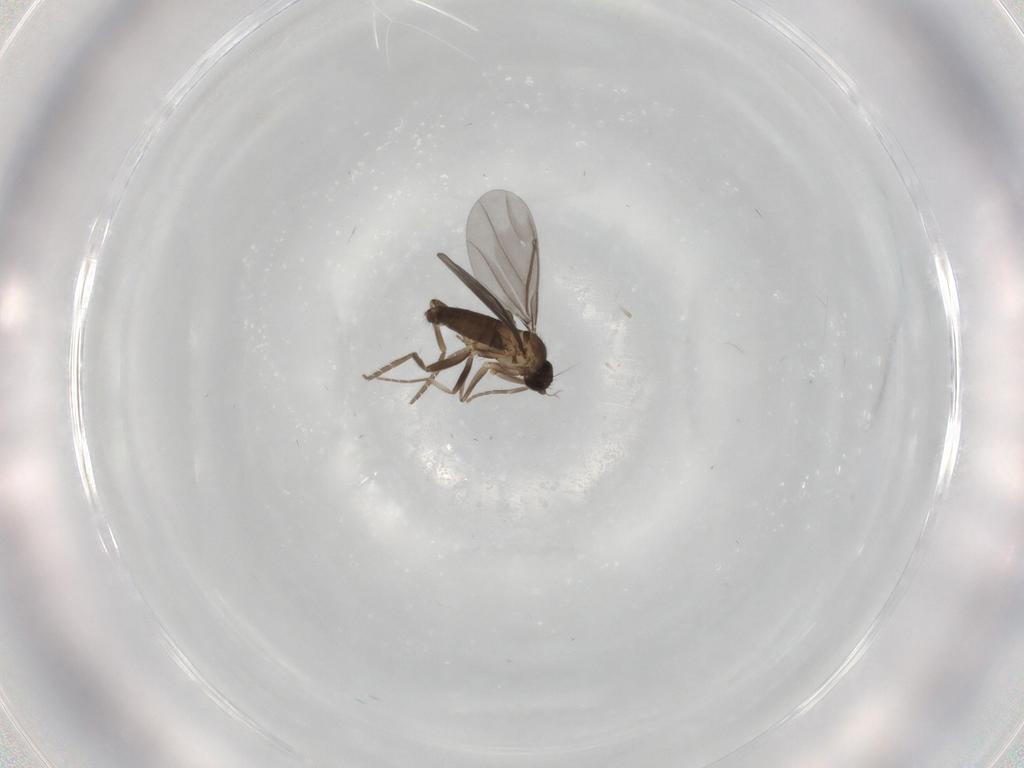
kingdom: Animalia
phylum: Arthropoda
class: Insecta
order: Diptera
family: Phoridae
